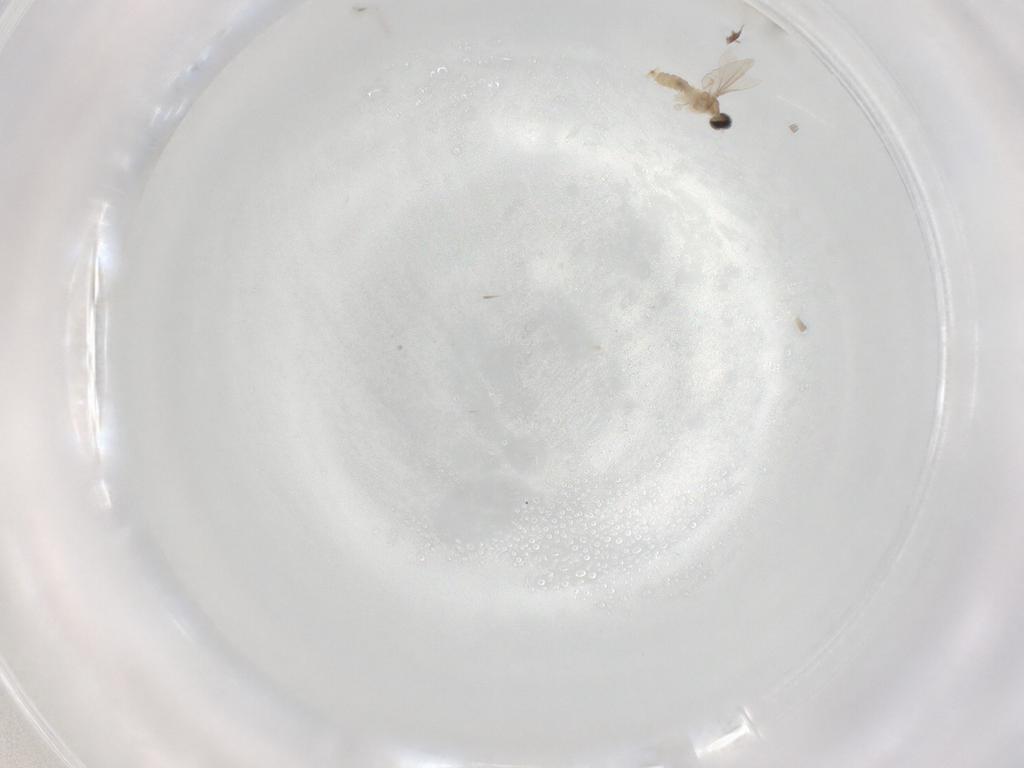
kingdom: Animalia
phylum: Arthropoda
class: Insecta
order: Diptera
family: Cecidomyiidae
